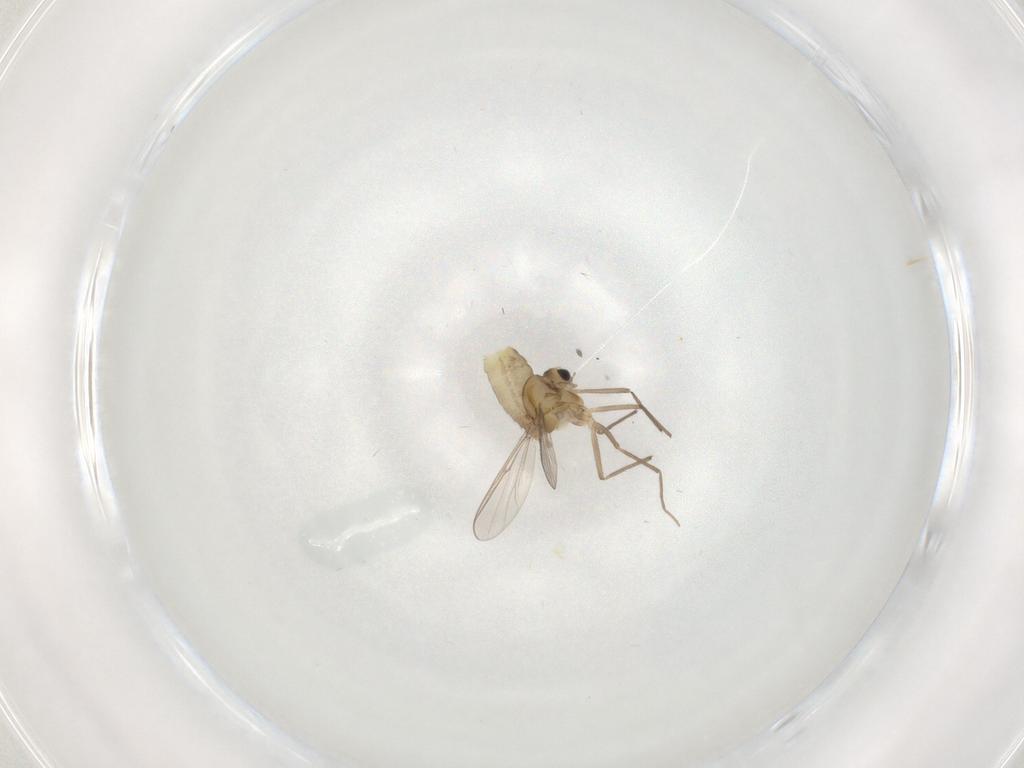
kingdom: Animalia
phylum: Arthropoda
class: Insecta
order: Diptera
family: Chironomidae
